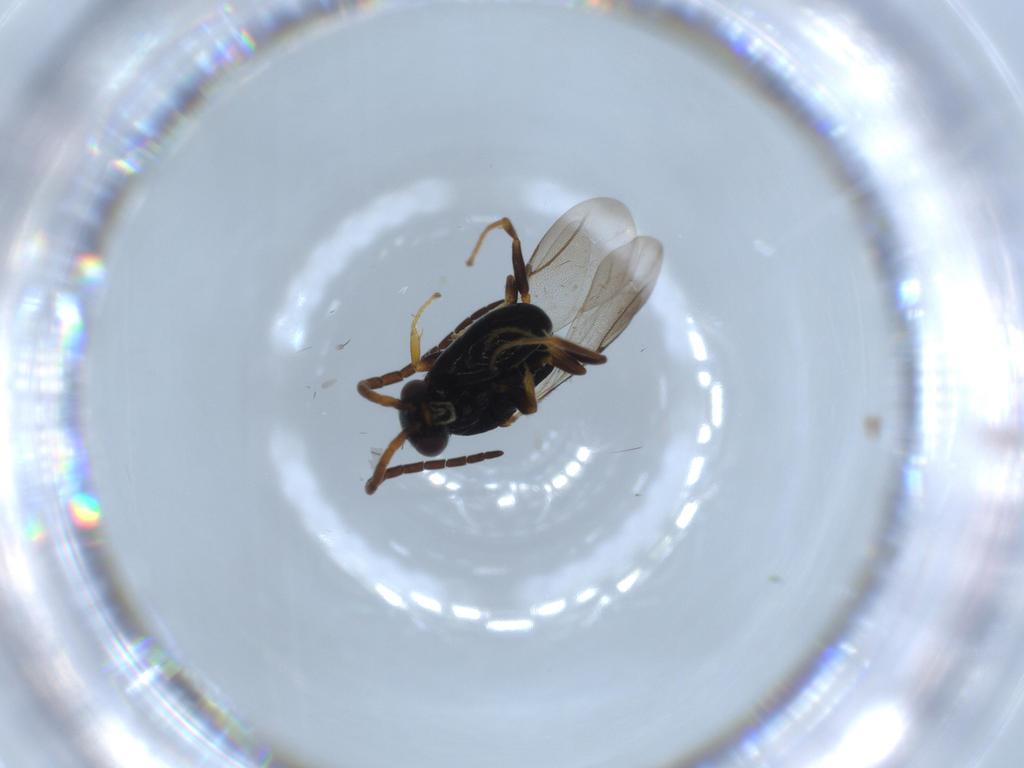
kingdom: Animalia
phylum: Arthropoda
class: Insecta
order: Hymenoptera
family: Bethylidae
